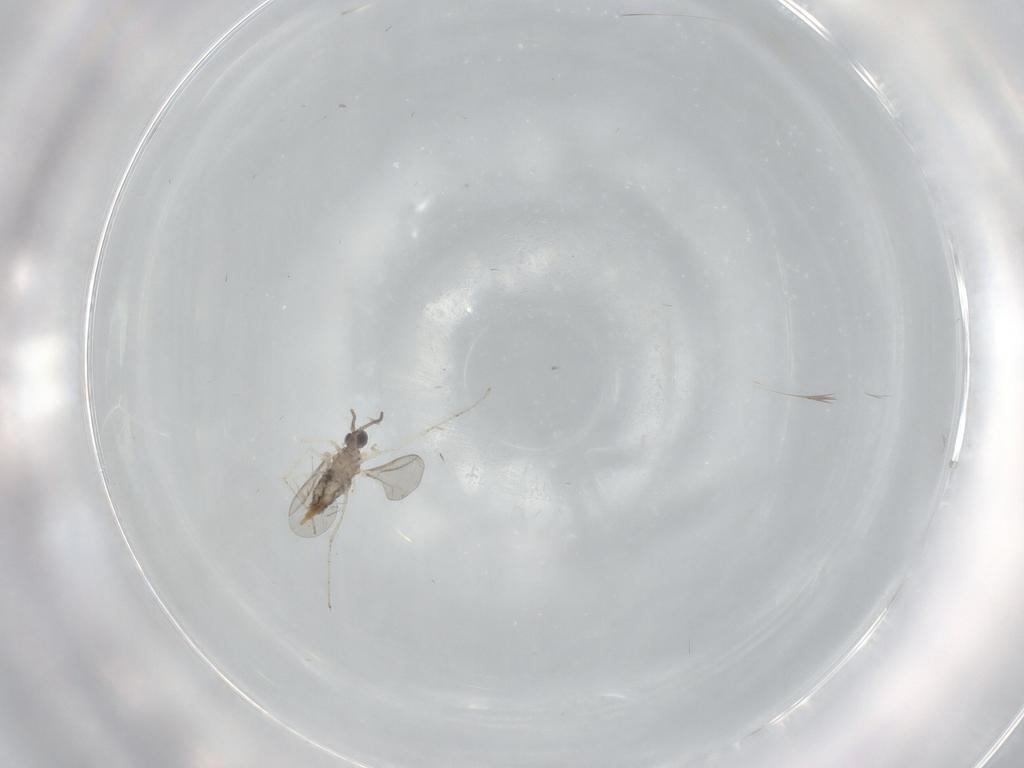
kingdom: Animalia
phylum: Arthropoda
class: Insecta
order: Diptera
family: Cecidomyiidae
